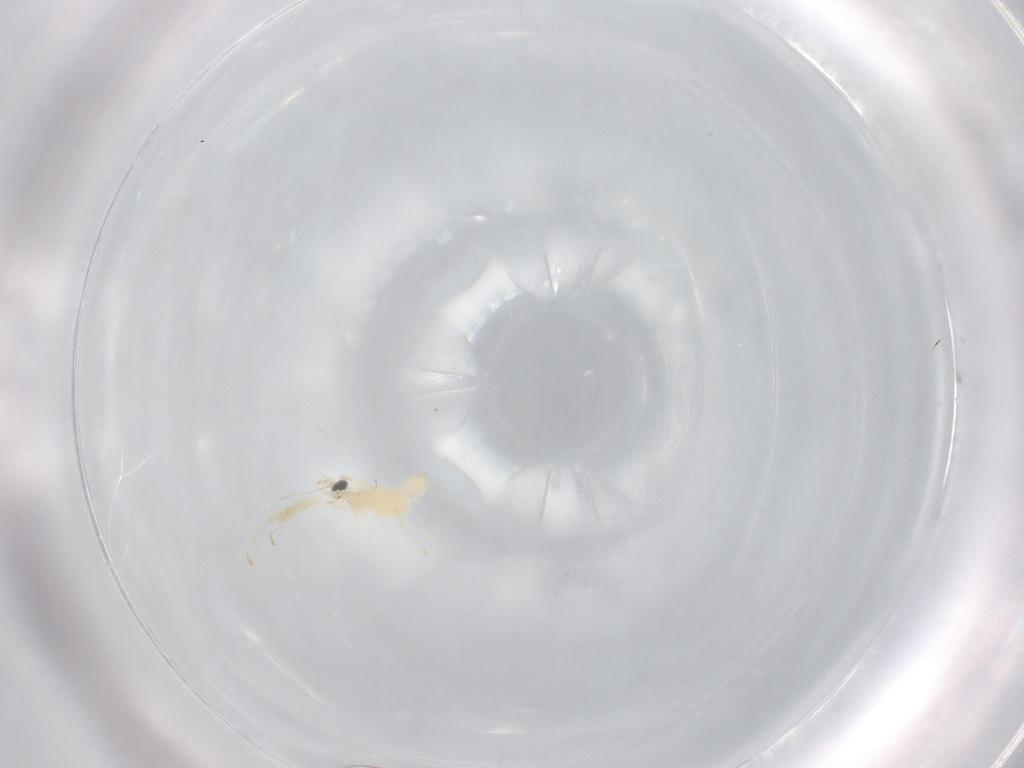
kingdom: Animalia
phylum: Arthropoda
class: Insecta
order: Diptera
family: Cecidomyiidae
